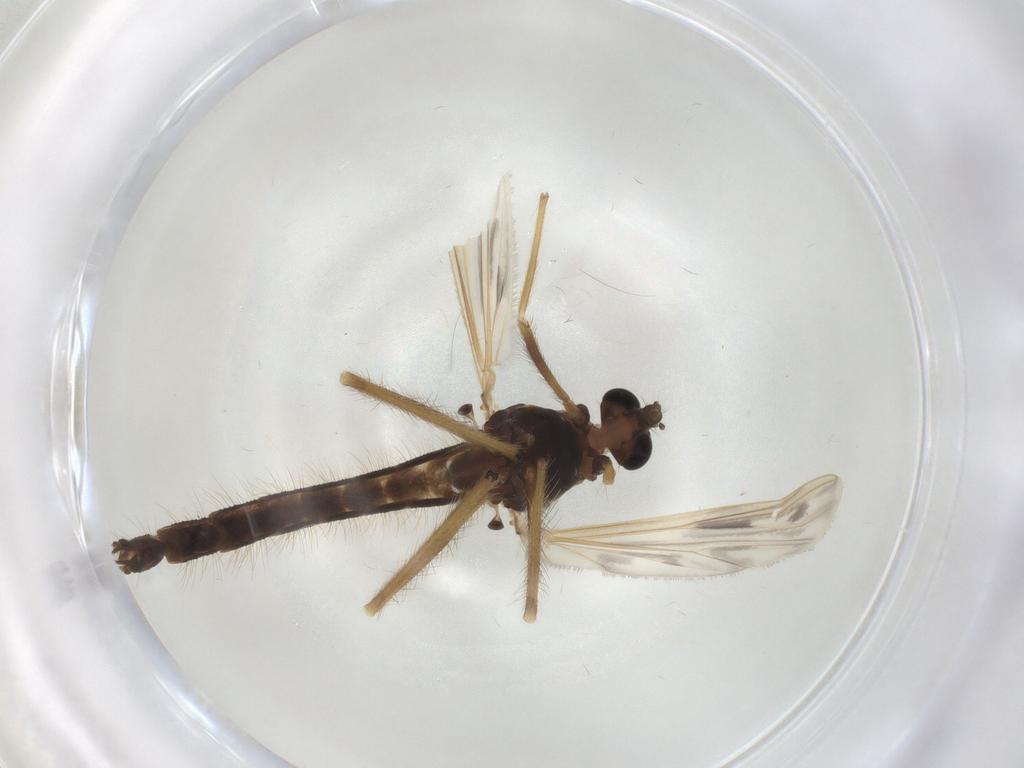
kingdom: Animalia
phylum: Arthropoda
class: Insecta
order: Diptera
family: Chironomidae
